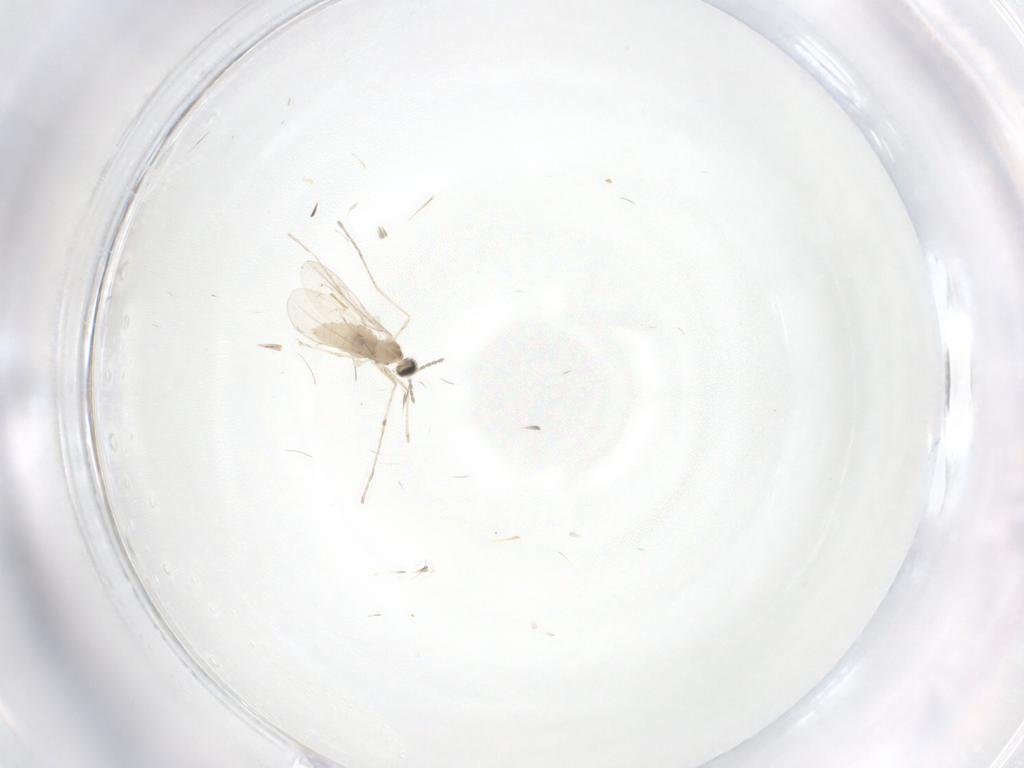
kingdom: Animalia
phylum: Arthropoda
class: Insecta
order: Diptera
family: Cecidomyiidae
